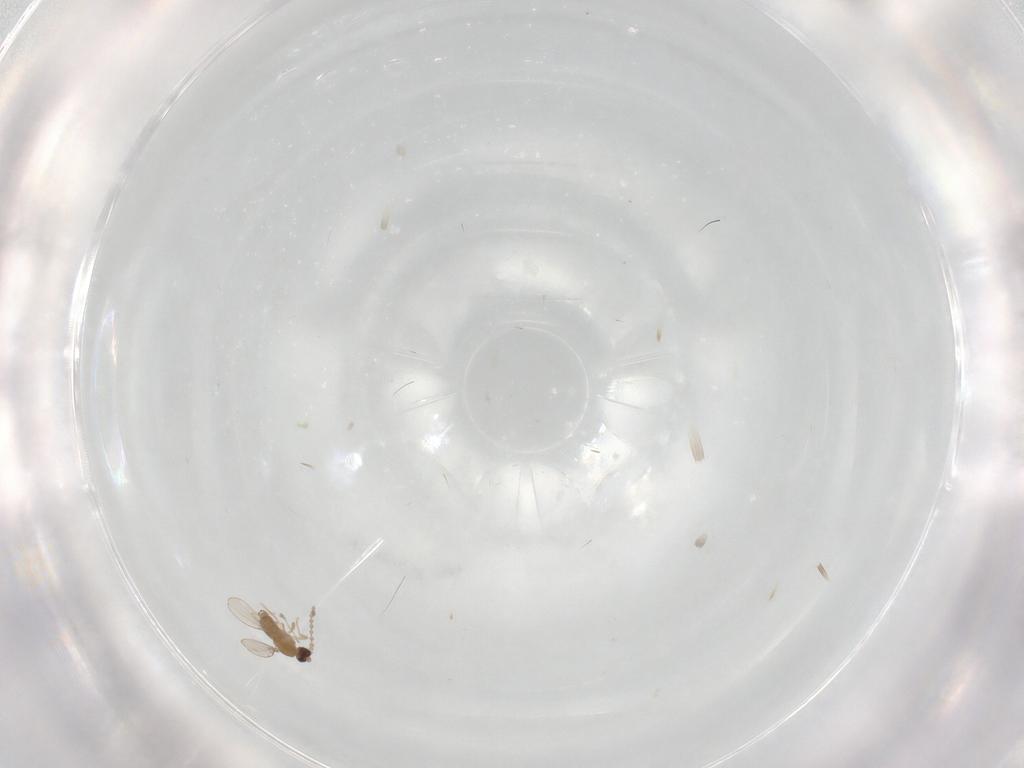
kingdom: Animalia
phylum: Arthropoda
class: Insecta
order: Diptera
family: Cecidomyiidae
